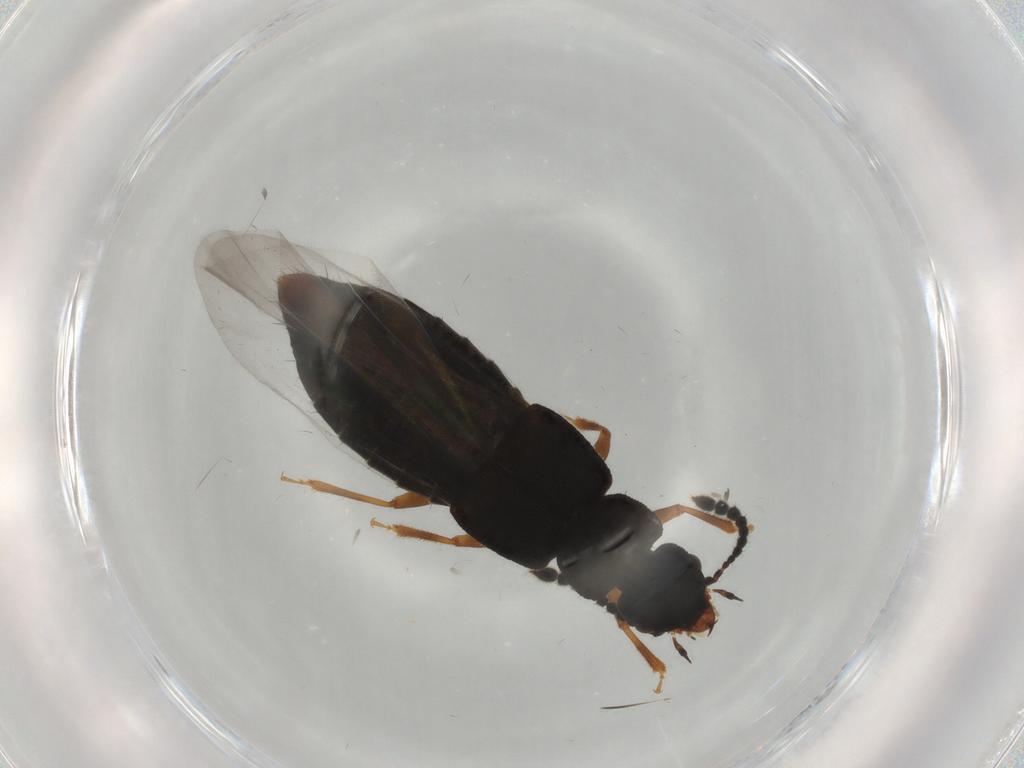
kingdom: Animalia
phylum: Arthropoda
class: Insecta
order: Coleoptera
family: Staphylinidae
